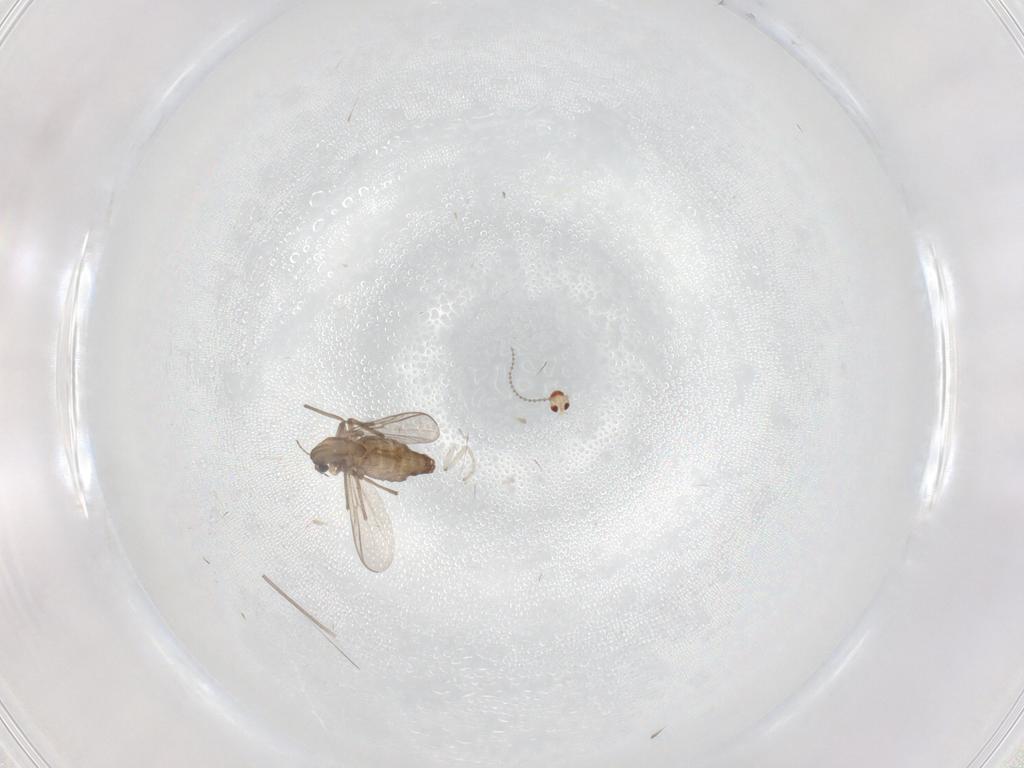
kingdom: Animalia
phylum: Arthropoda
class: Insecta
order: Diptera
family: Chironomidae
